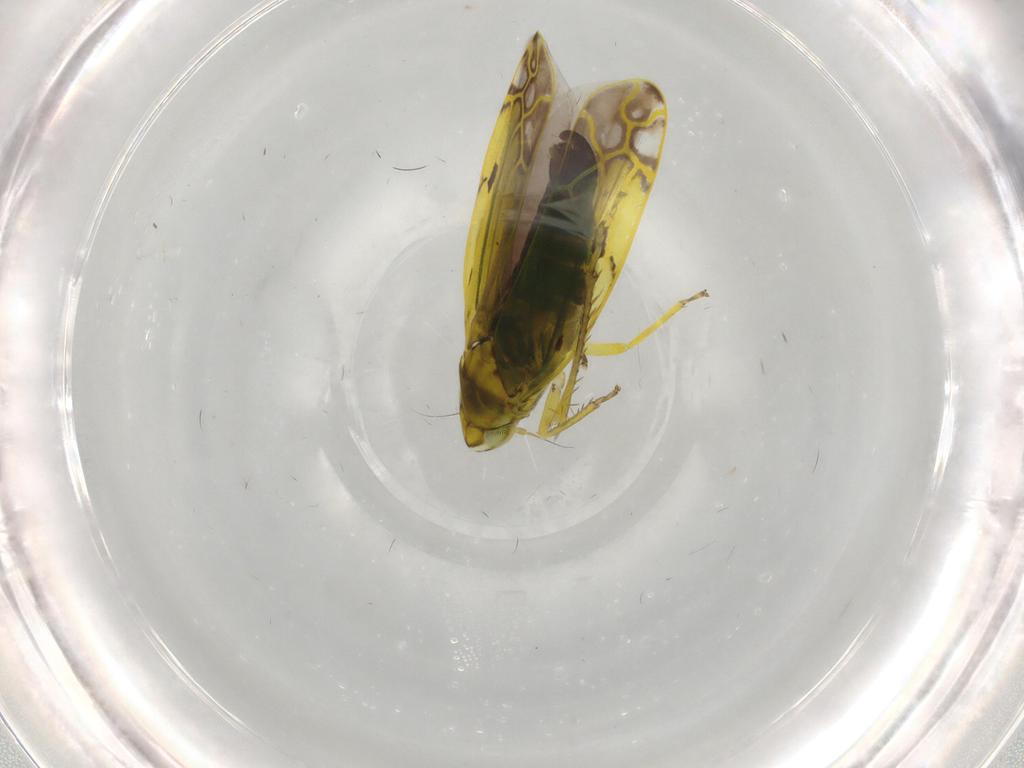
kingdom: Animalia
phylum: Arthropoda
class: Insecta
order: Hemiptera
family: Cicadellidae
